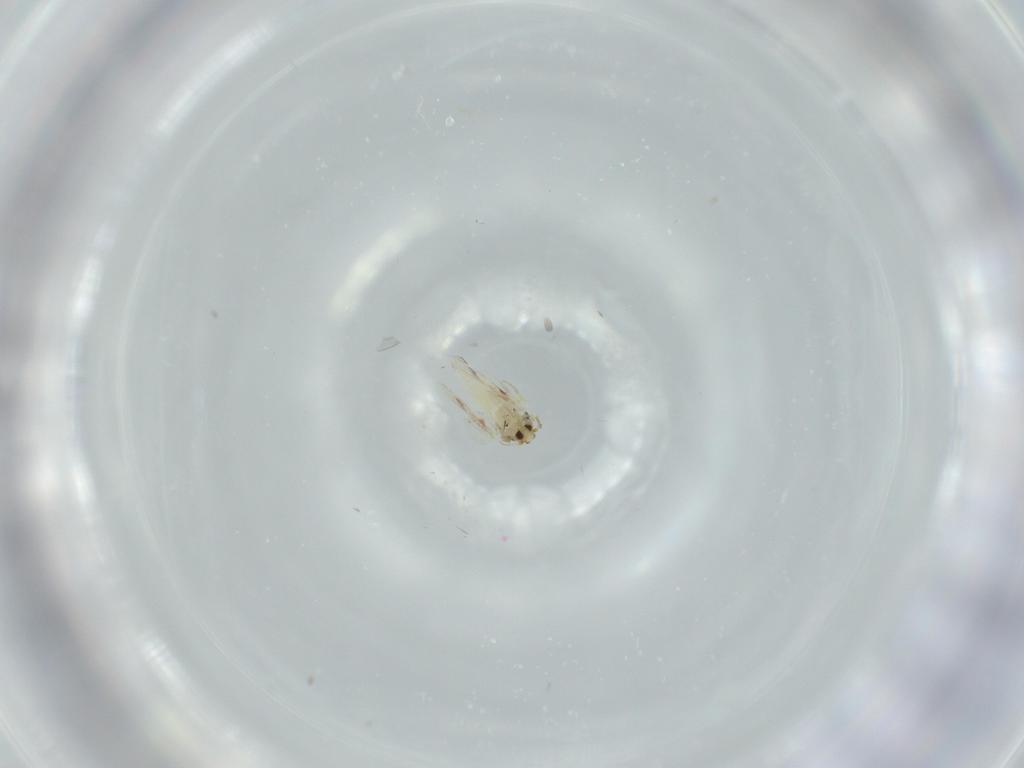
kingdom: Animalia
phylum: Arthropoda
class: Insecta
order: Hemiptera
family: Aleyrodidae
